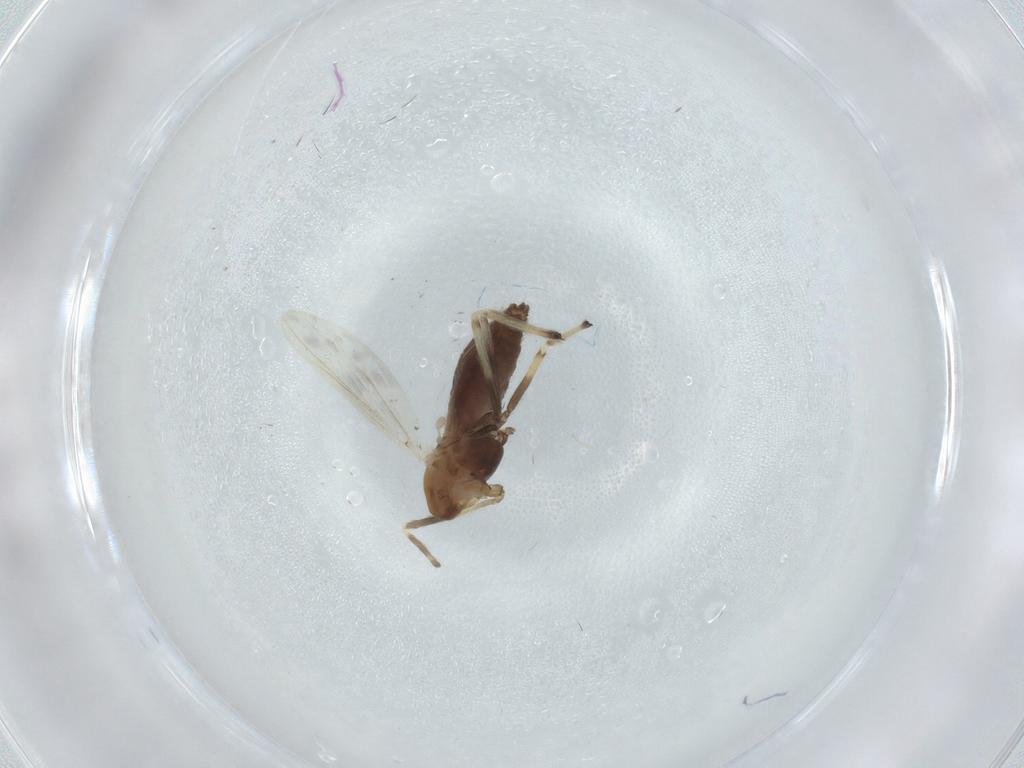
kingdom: Animalia
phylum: Arthropoda
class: Insecta
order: Diptera
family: Chironomidae
